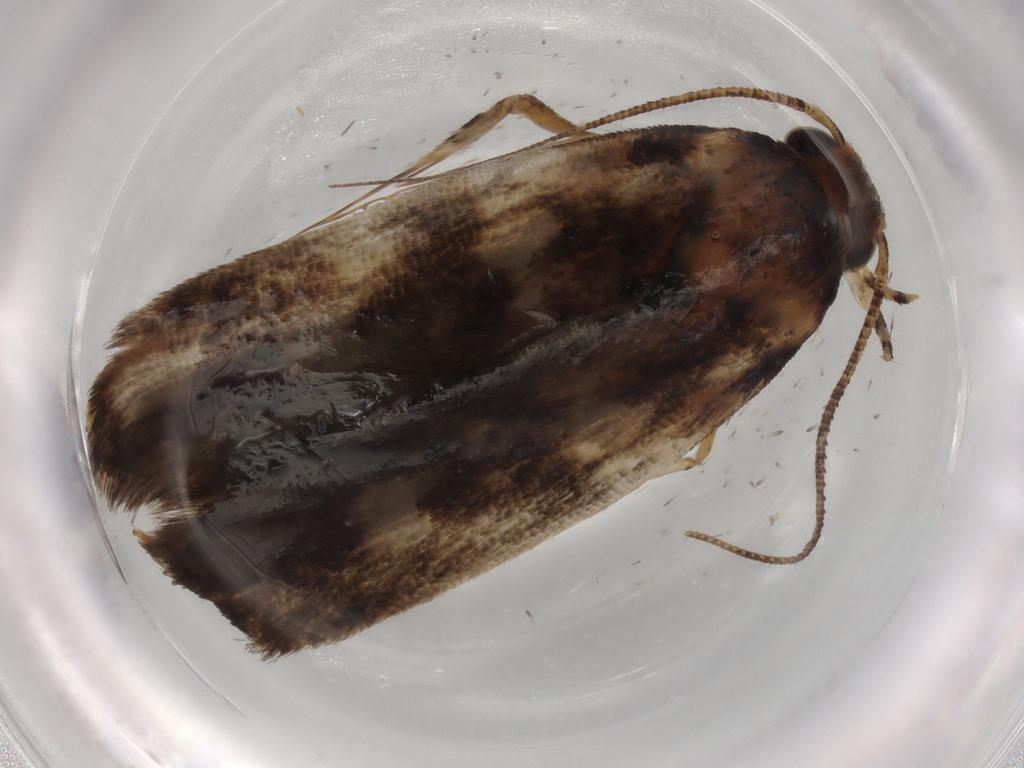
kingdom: Animalia
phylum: Arthropoda
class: Insecta
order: Lepidoptera
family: Gelechiidae
